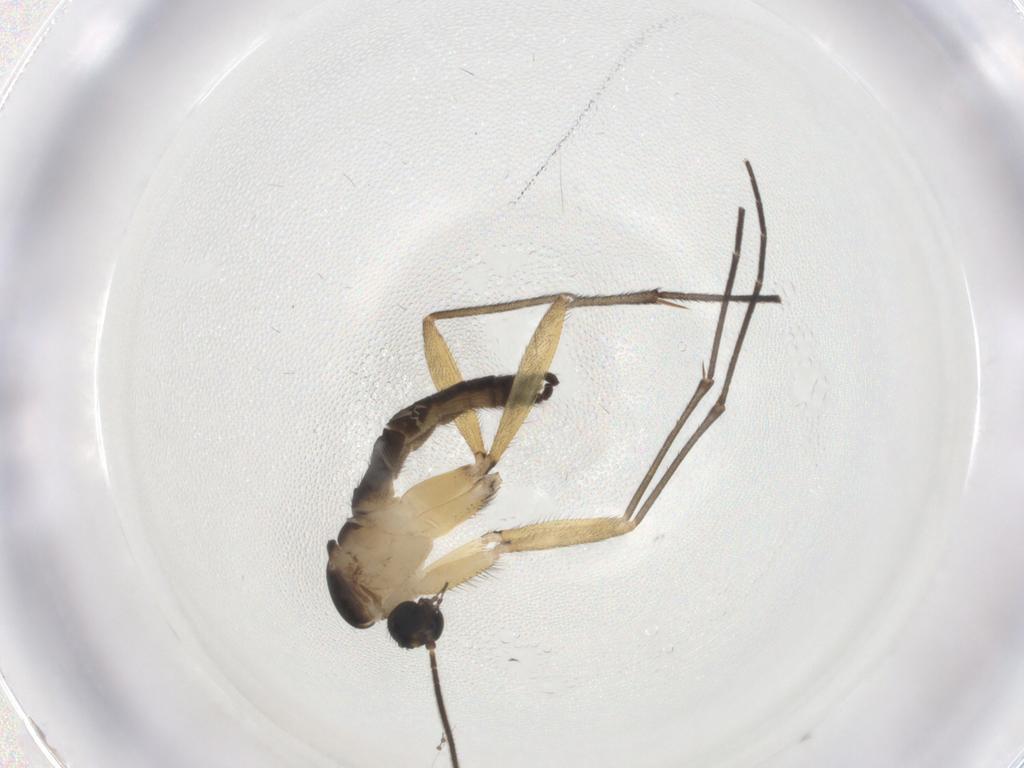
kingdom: Animalia
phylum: Arthropoda
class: Insecta
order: Diptera
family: Sciaridae
